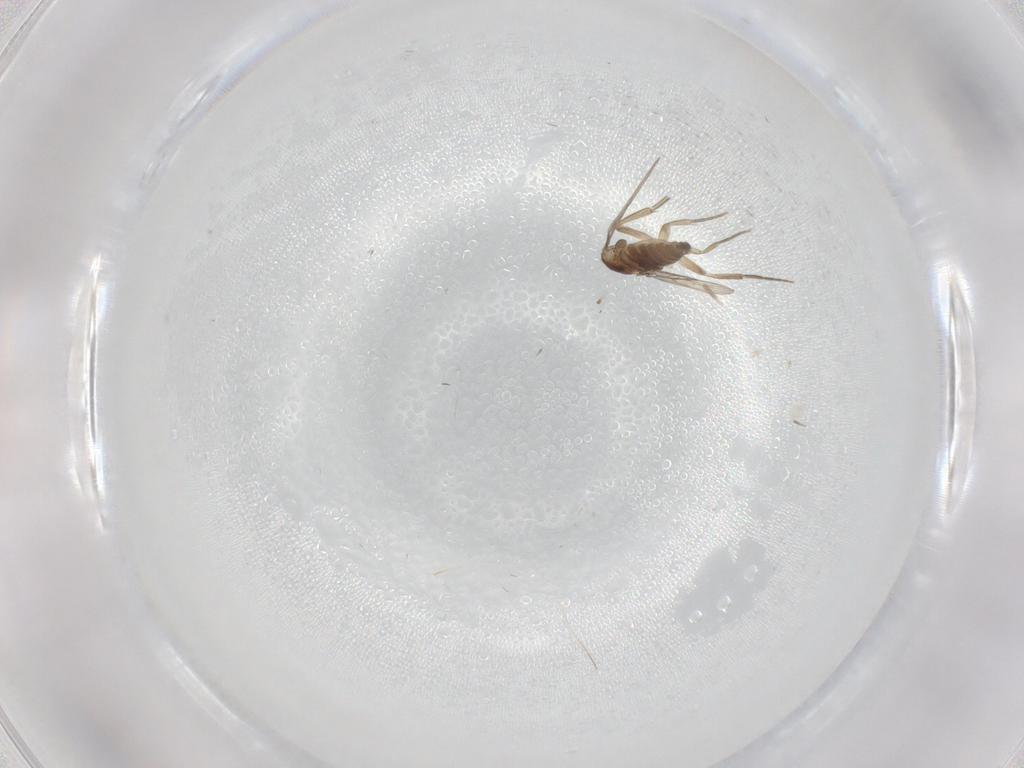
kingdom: Animalia
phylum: Arthropoda
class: Insecta
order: Diptera
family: Phoridae
